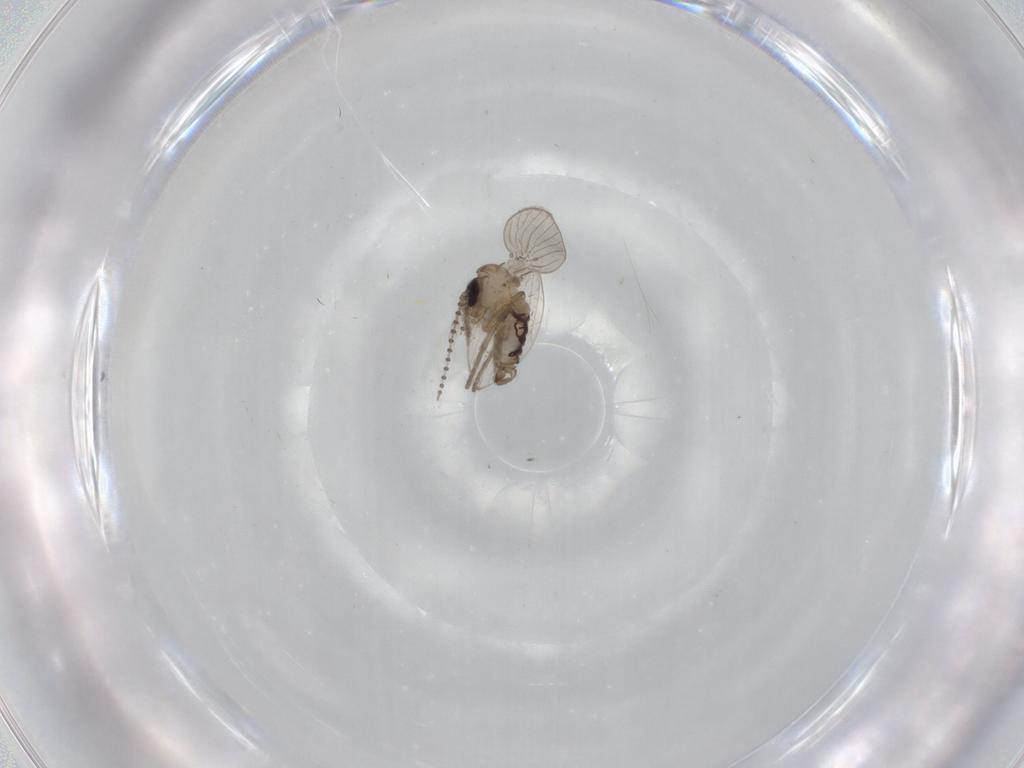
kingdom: Animalia
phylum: Arthropoda
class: Insecta
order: Diptera
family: Psychodidae
